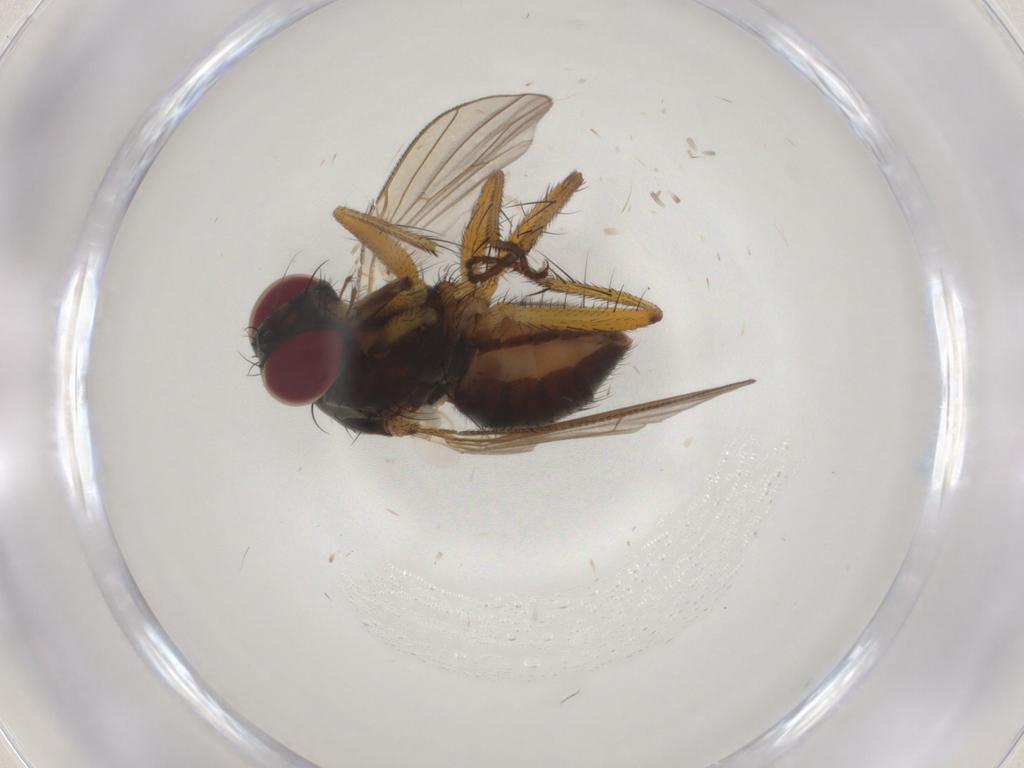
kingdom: Animalia
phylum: Arthropoda
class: Insecta
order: Diptera
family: Muscidae
